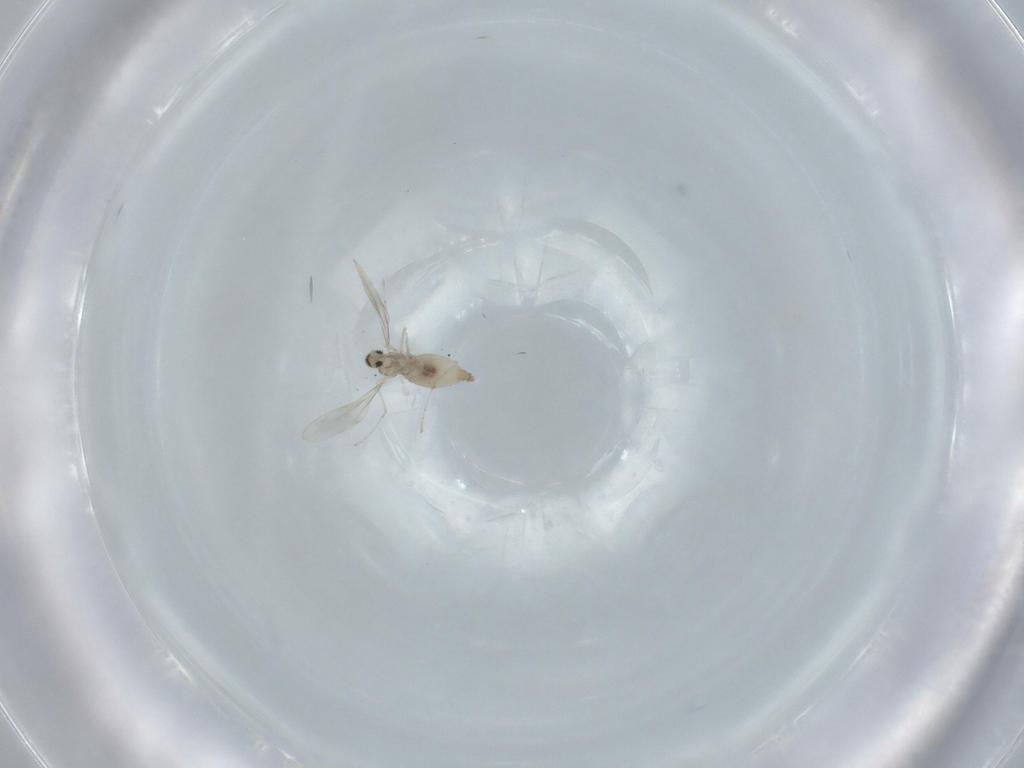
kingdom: Animalia
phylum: Arthropoda
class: Insecta
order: Diptera
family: Cecidomyiidae
